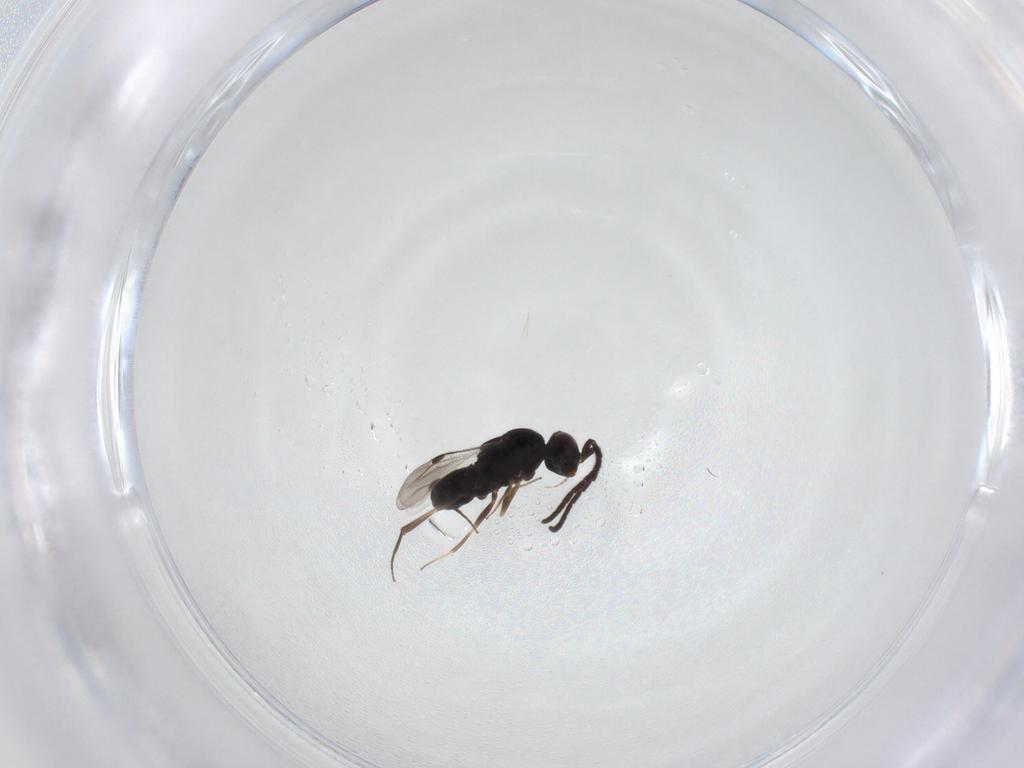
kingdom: Animalia
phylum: Arthropoda
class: Insecta
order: Hymenoptera
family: Megaspilidae
